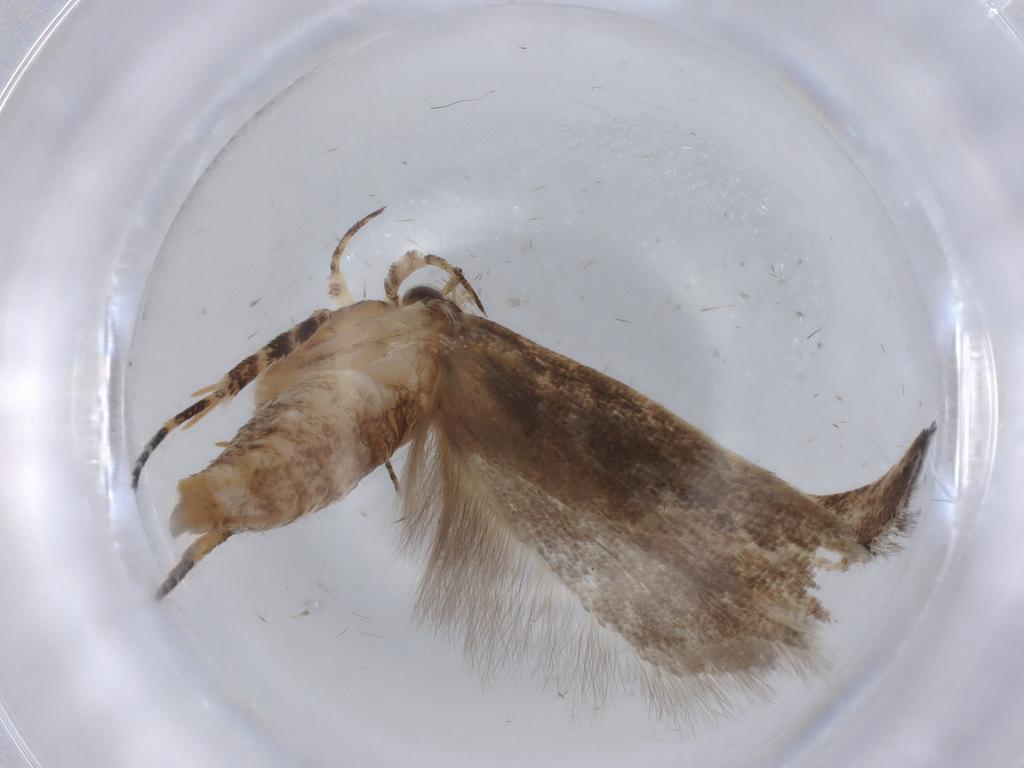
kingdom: Animalia
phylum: Arthropoda
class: Insecta
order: Lepidoptera
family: Gelechiidae
